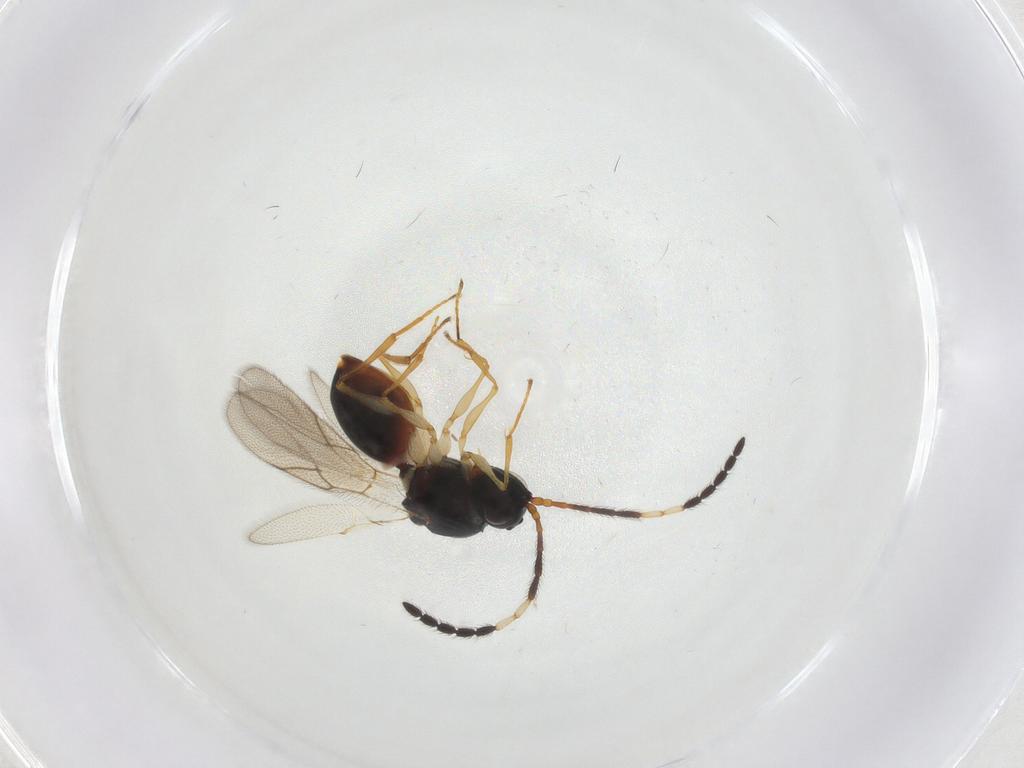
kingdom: Animalia
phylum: Arthropoda
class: Insecta
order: Hymenoptera
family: Figitidae
